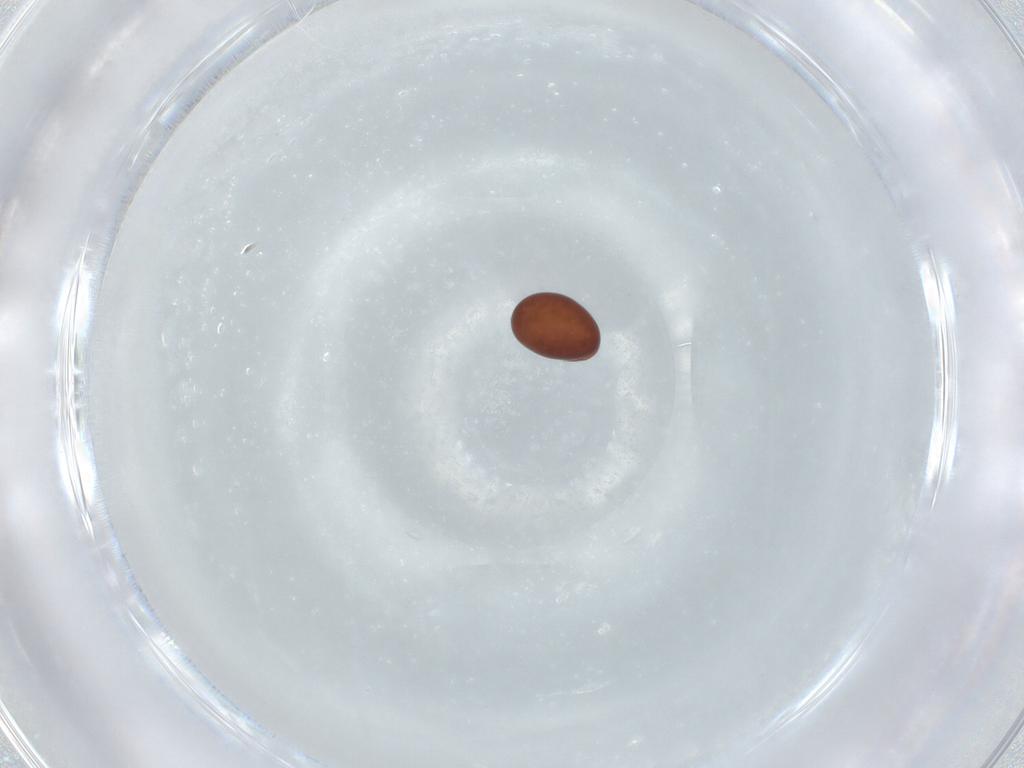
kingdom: Animalia
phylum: Arthropoda
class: Arachnida
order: Sarcoptiformes
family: Phthiracaridae
